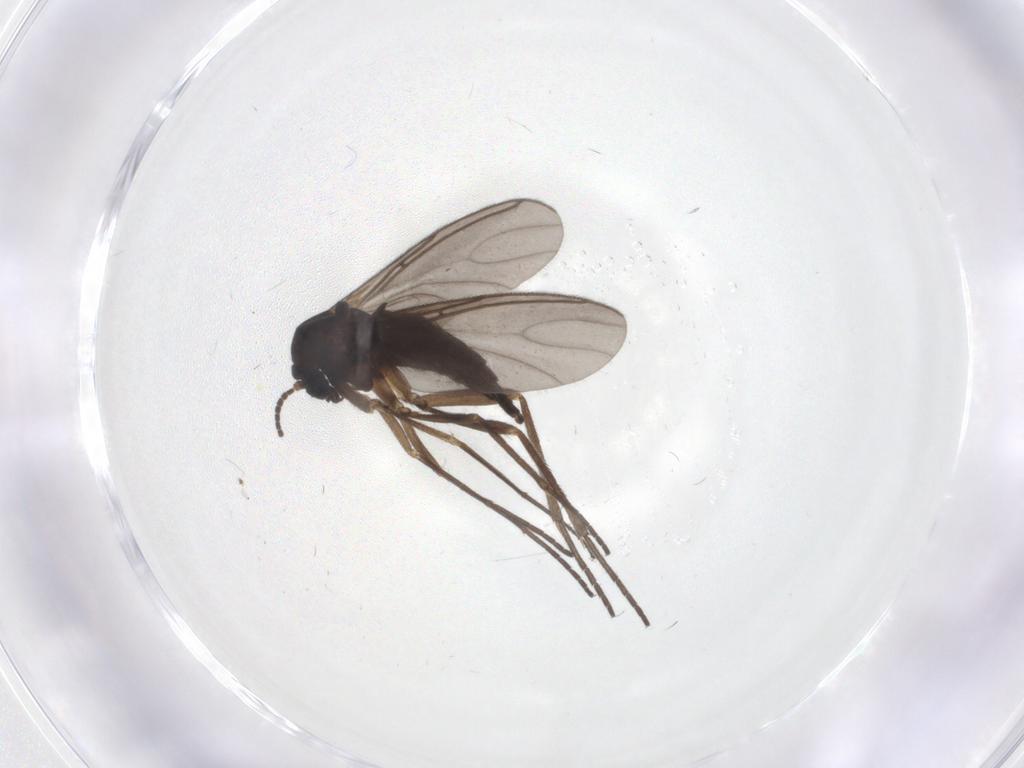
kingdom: Animalia
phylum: Arthropoda
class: Insecta
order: Diptera
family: Sciaridae
